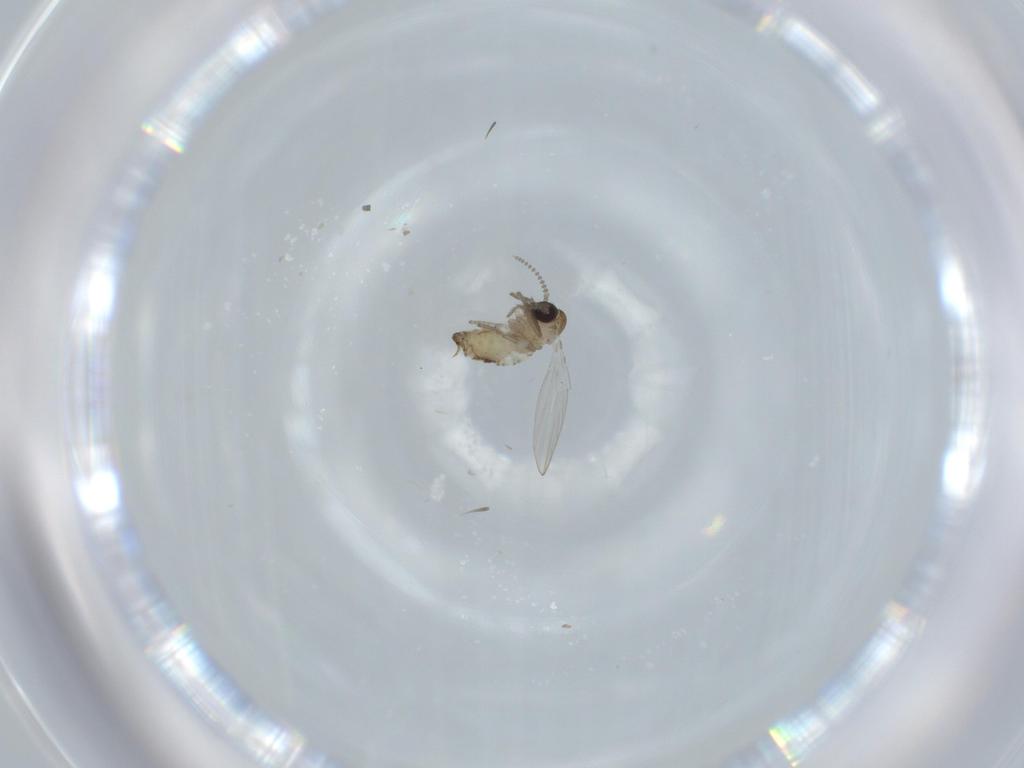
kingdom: Animalia
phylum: Arthropoda
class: Insecta
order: Diptera
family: Psychodidae
